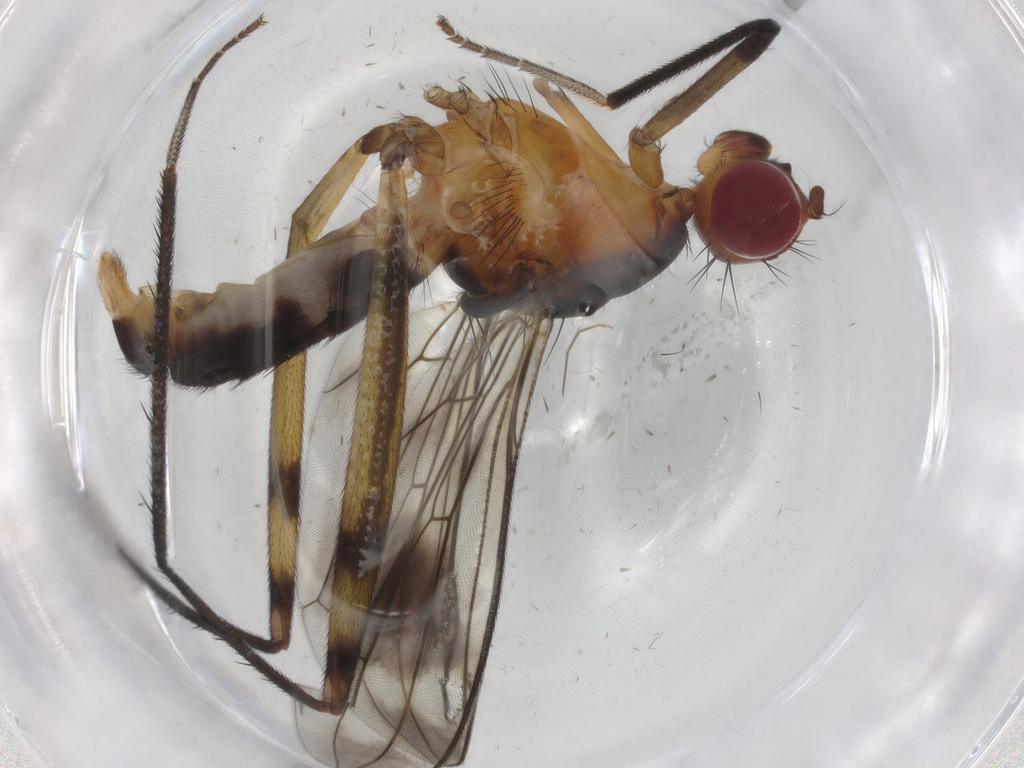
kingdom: Animalia
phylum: Arthropoda
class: Insecta
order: Diptera
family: Micropezidae
